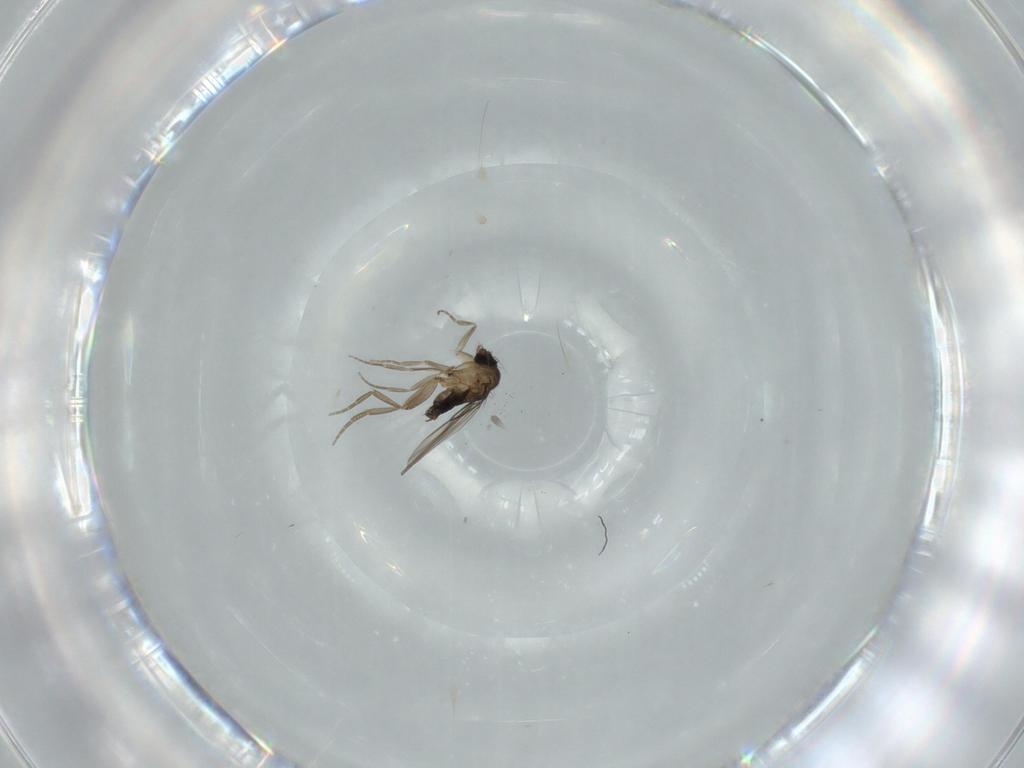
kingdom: Animalia
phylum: Arthropoda
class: Insecta
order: Diptera
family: Phoridae
